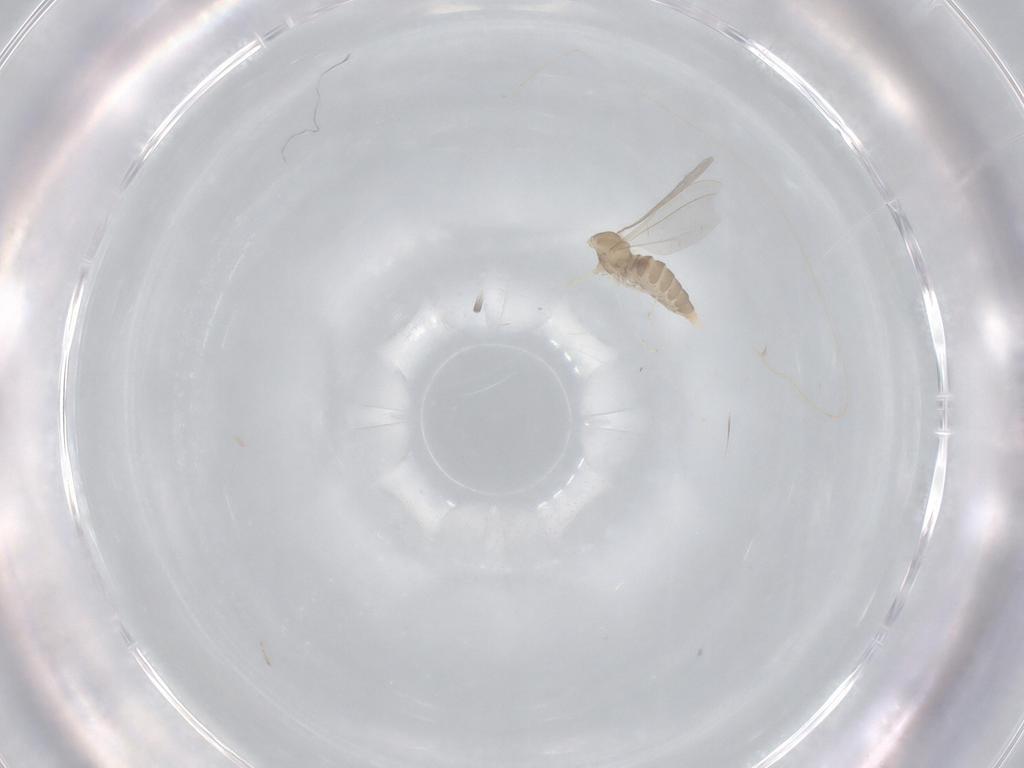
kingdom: Animalia
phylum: Arthropoda
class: Insecta
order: Diptera
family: Cecidomyiidae
